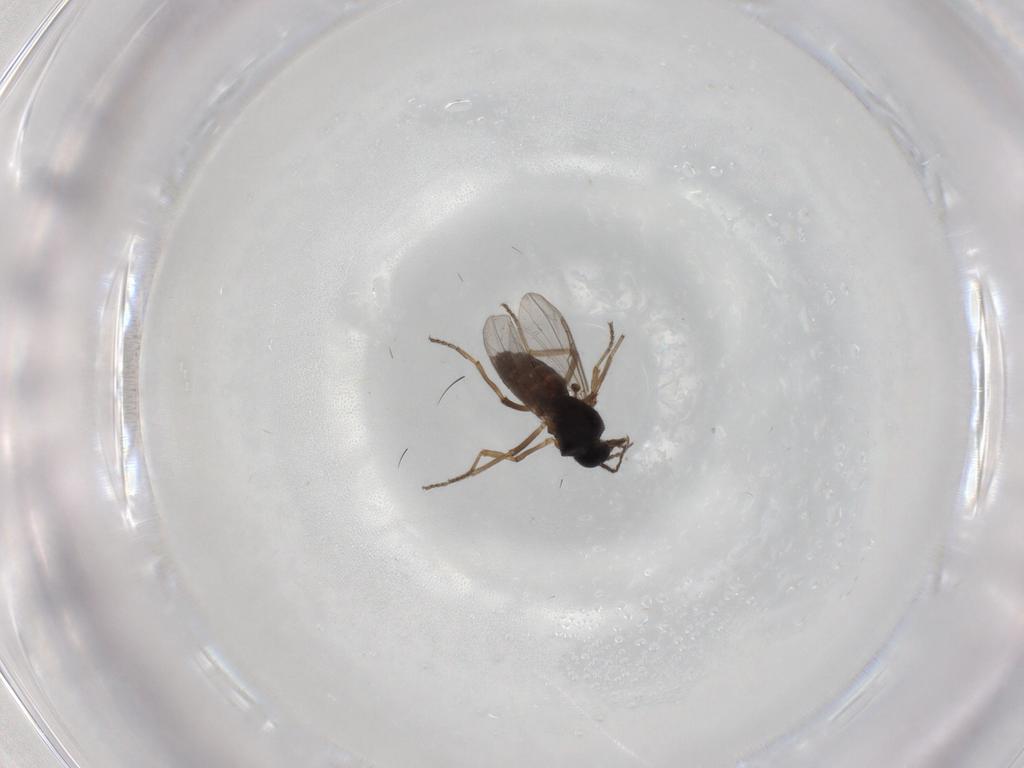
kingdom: Animalia
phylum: Arthropoda
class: Insecta
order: Diptera
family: Ceratopogonidae
